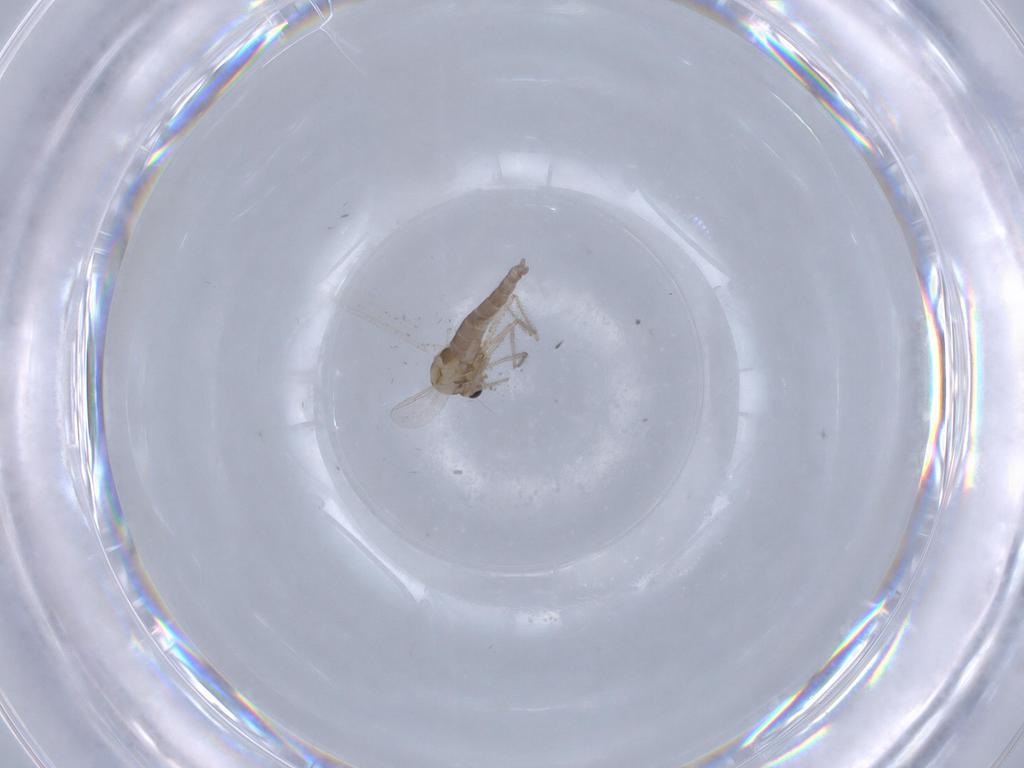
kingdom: Animalia
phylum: Arthropoda
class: Insecta
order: Diptera
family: Chironomidae
